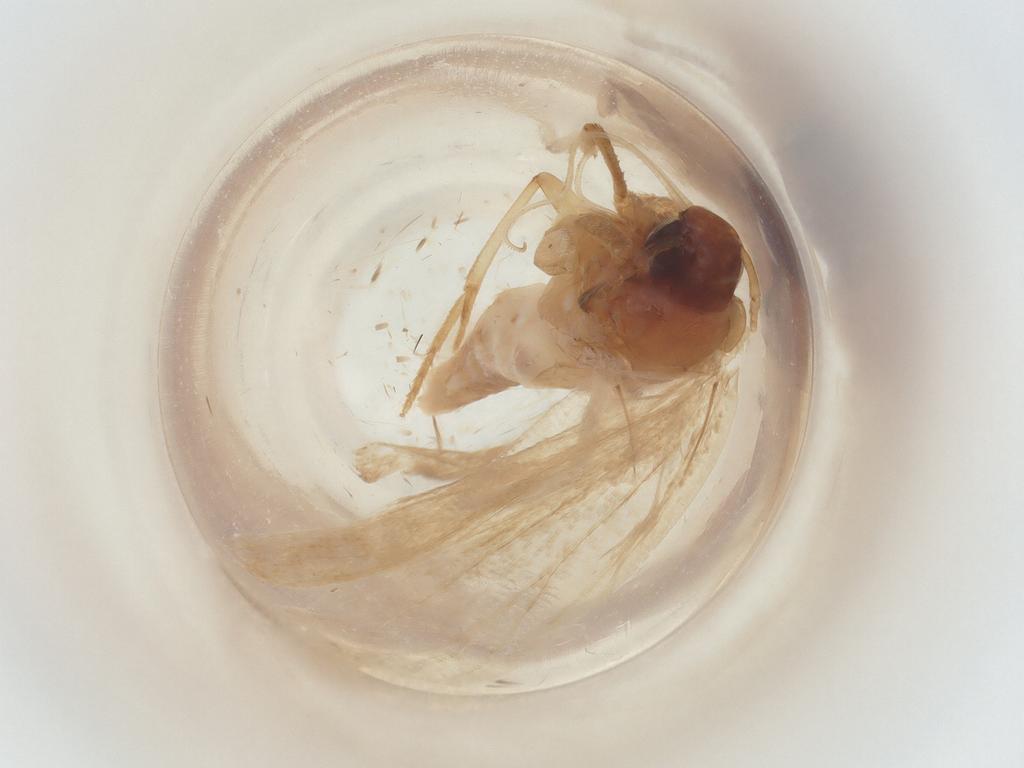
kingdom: Animalia
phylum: Arthropoda
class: Insecta
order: Lepidoptera
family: Gelechiidae
